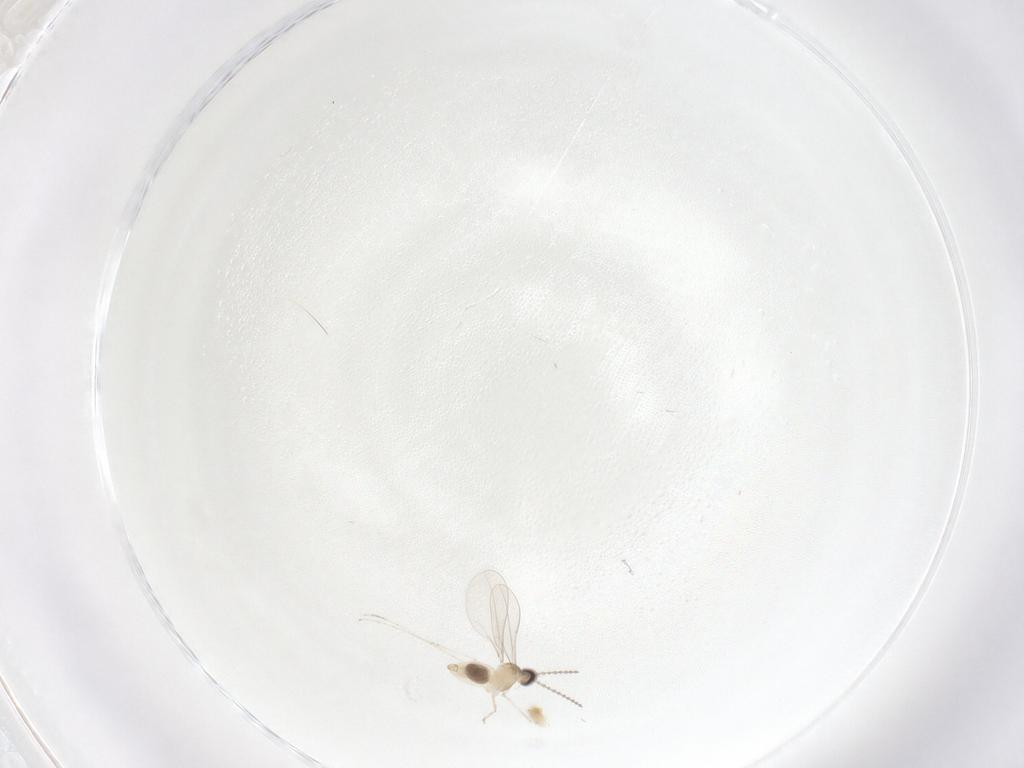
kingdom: Animalia
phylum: Arthropoda
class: Insecta
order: Diptera
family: Cecidomyiidae
